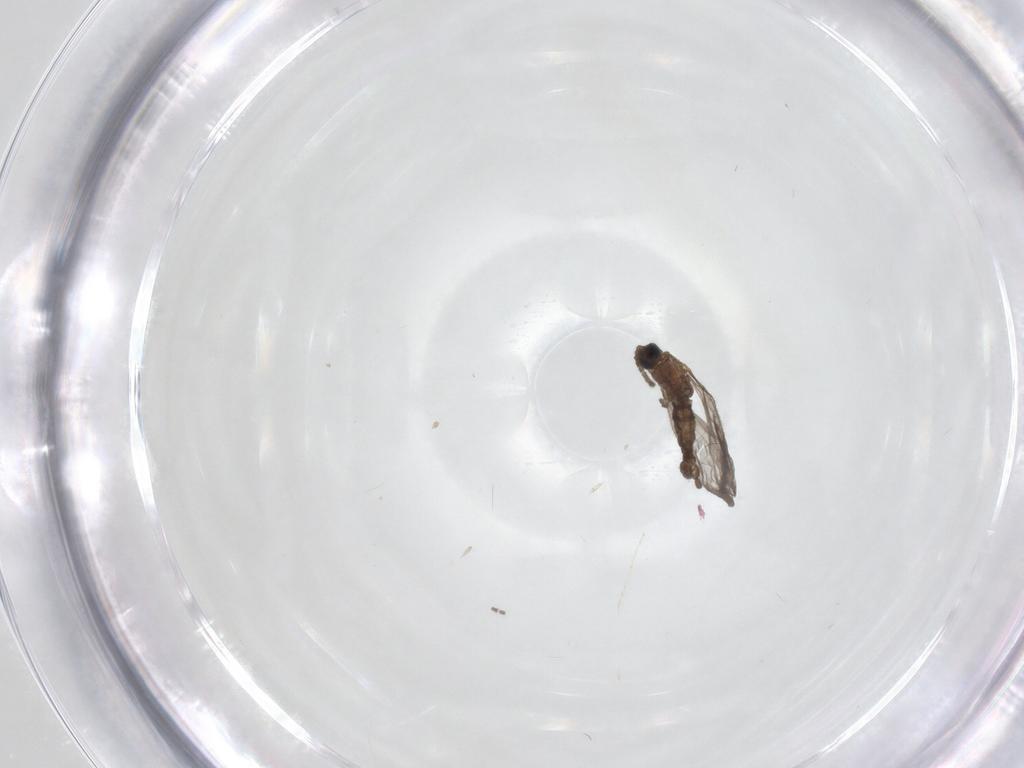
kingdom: Animalia
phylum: Arthropoda
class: Insecta
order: Diptera
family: Sciaridae
